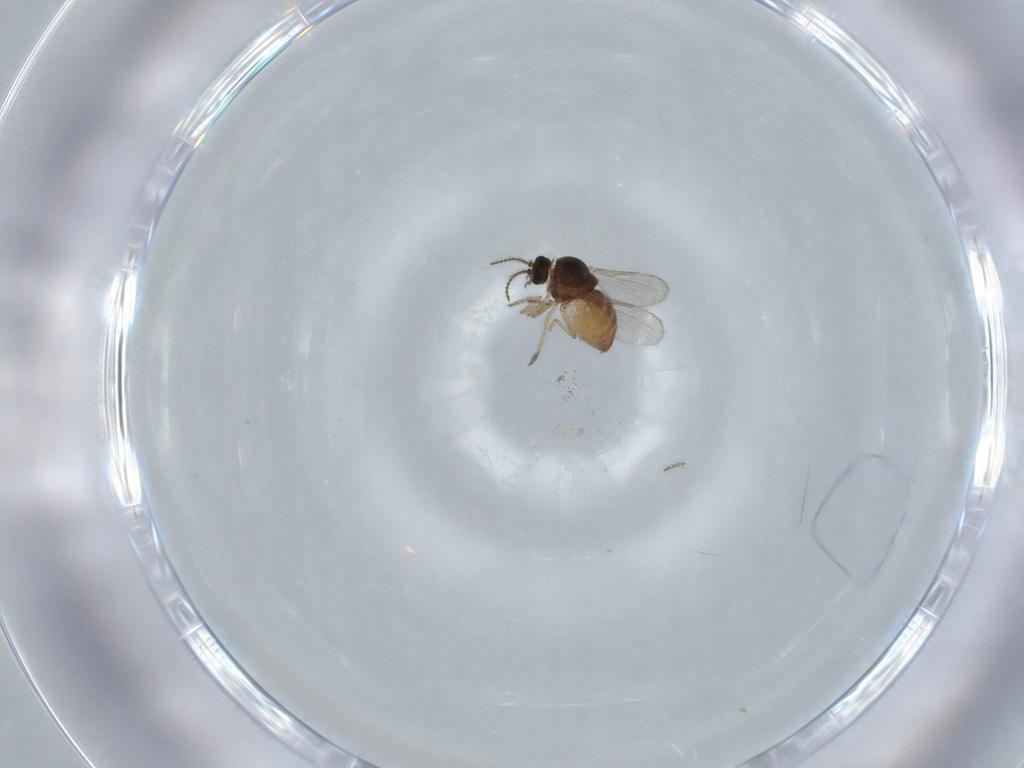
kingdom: Animalia
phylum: Arthropoda
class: Insecta
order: Diptera
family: Ceratopogonidae
